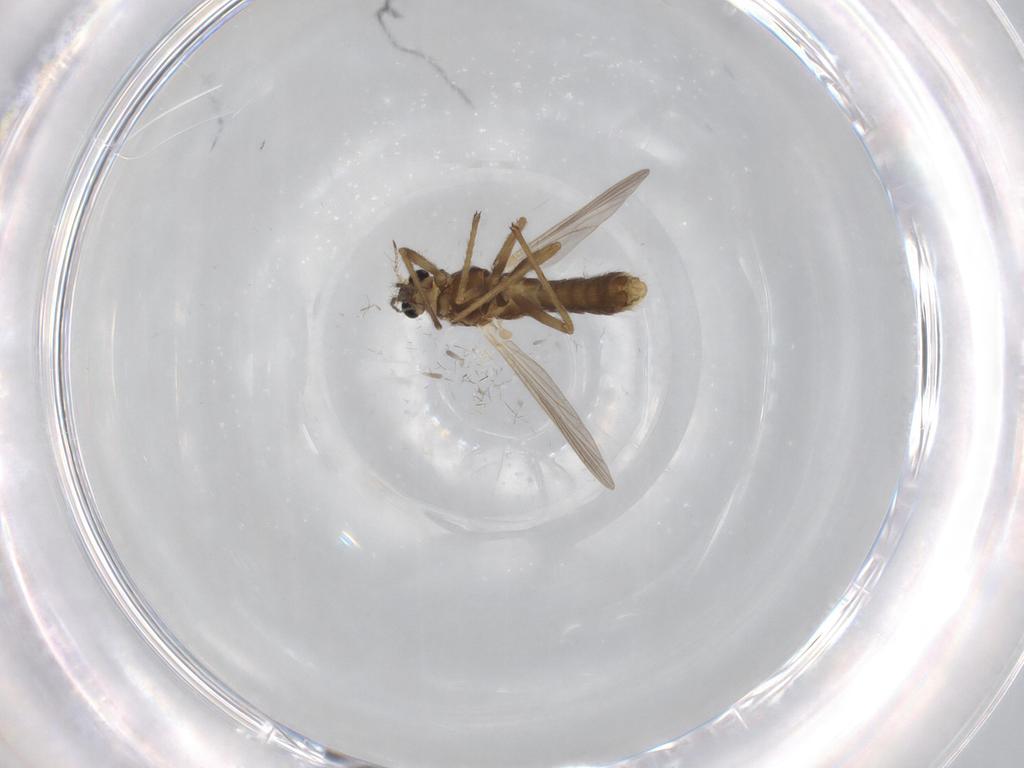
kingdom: Animalia
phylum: Arthropoda
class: Insecta
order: Diptera
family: Chironomidae
